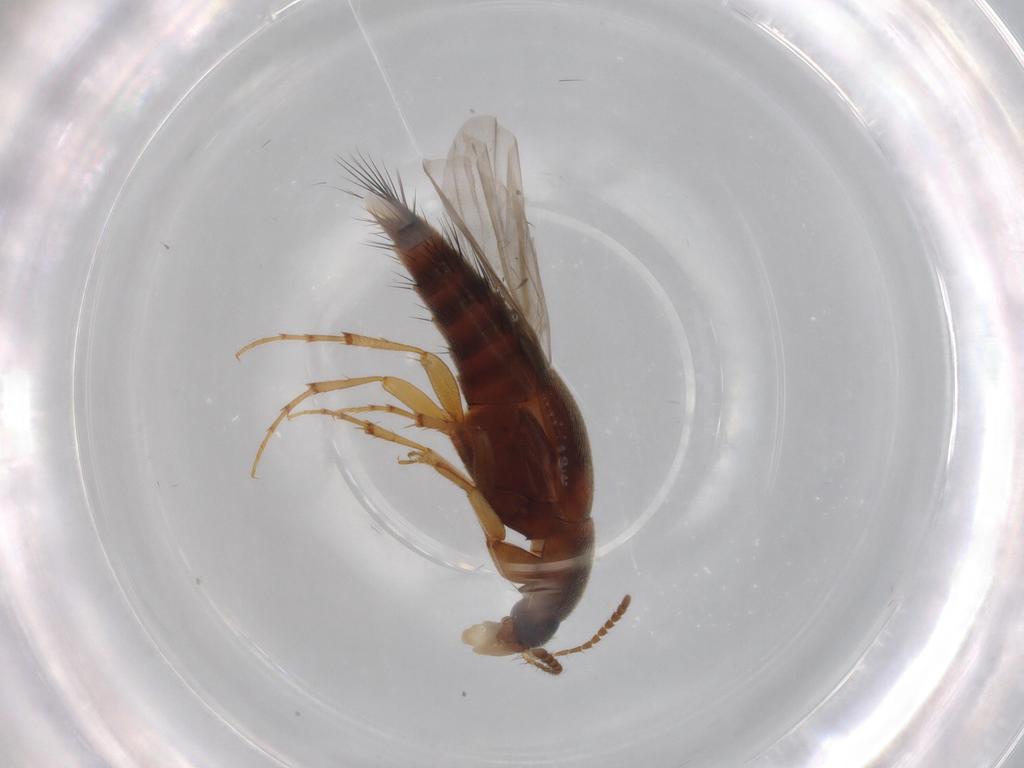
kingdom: Animalia
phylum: Arthropoda
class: Insecta
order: Coleoptera
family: Staphylinidae
